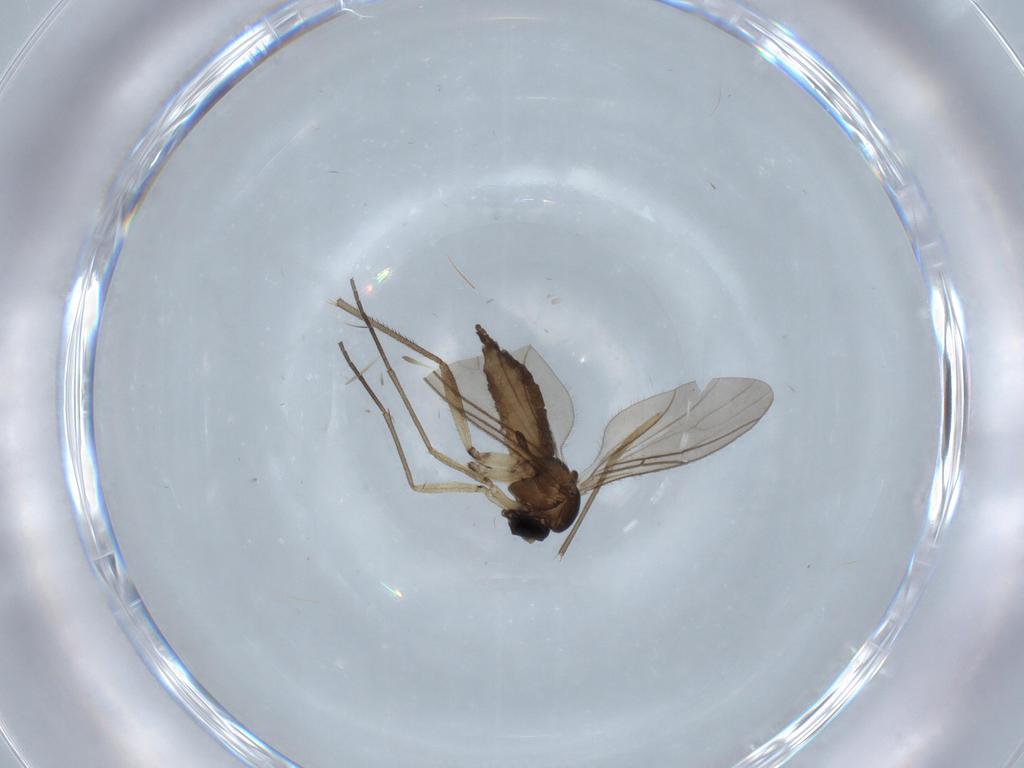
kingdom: Animalia
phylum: Arthropoda
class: Insecta
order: Diptera
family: Sciaridae
